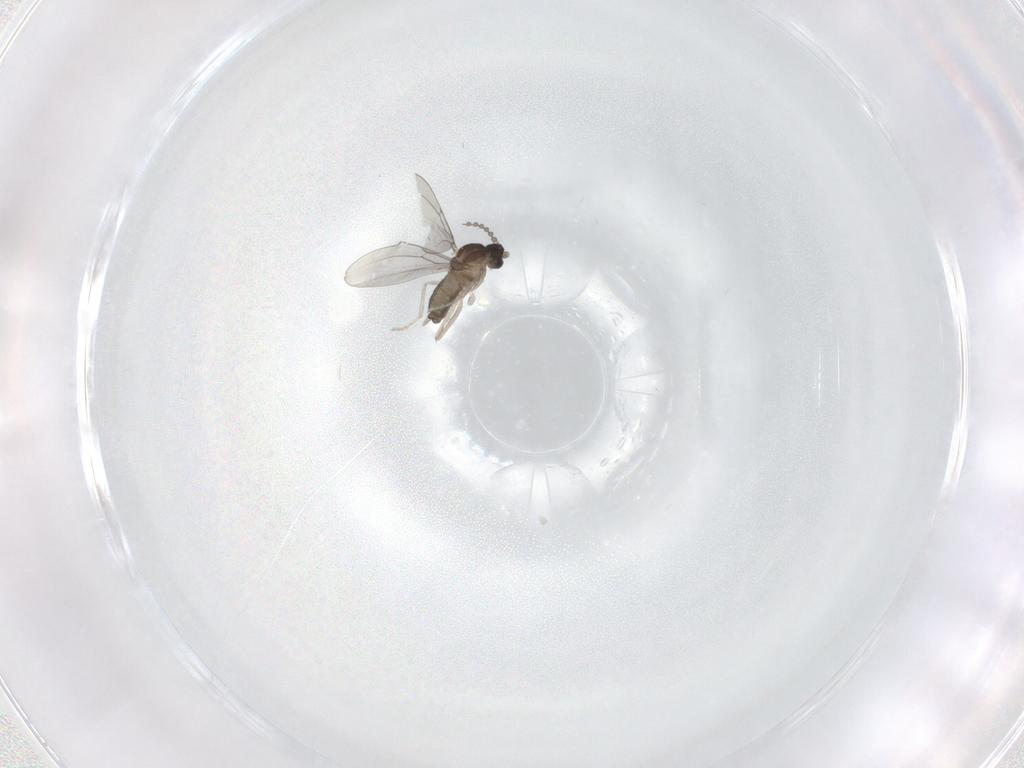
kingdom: Animalia
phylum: Arthropoda
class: Insecta
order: Diptera
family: Cecidomyiidae
